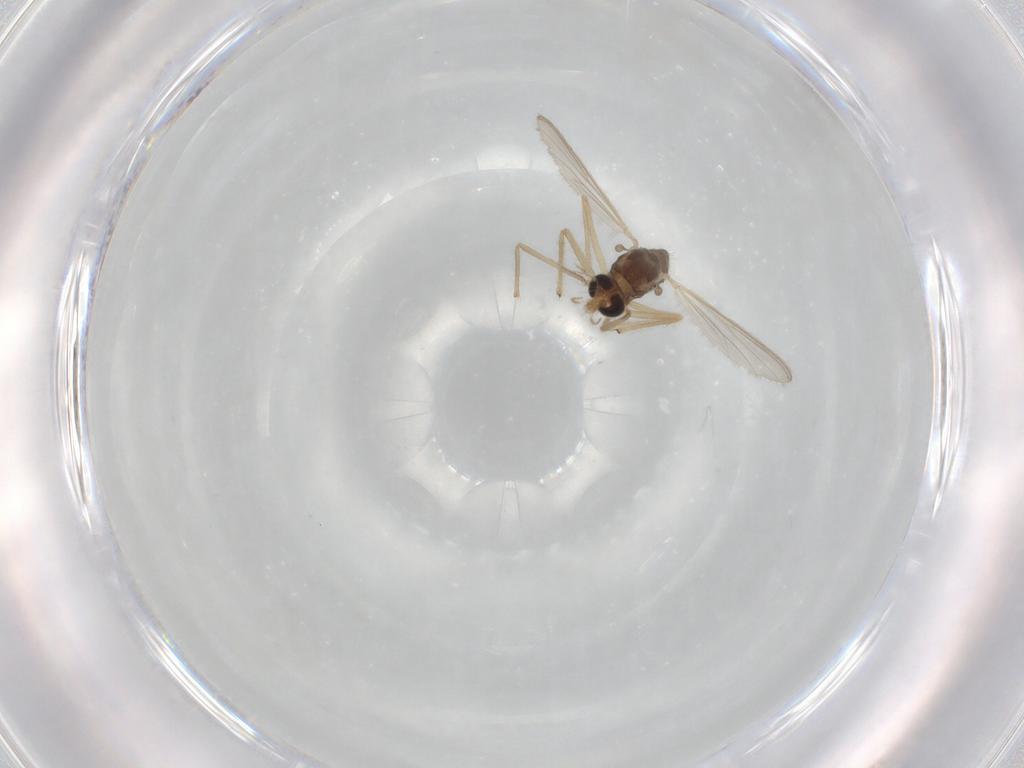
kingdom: Animalia
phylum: Arthropoda
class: Insecta
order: Diptera
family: Chironomidae
